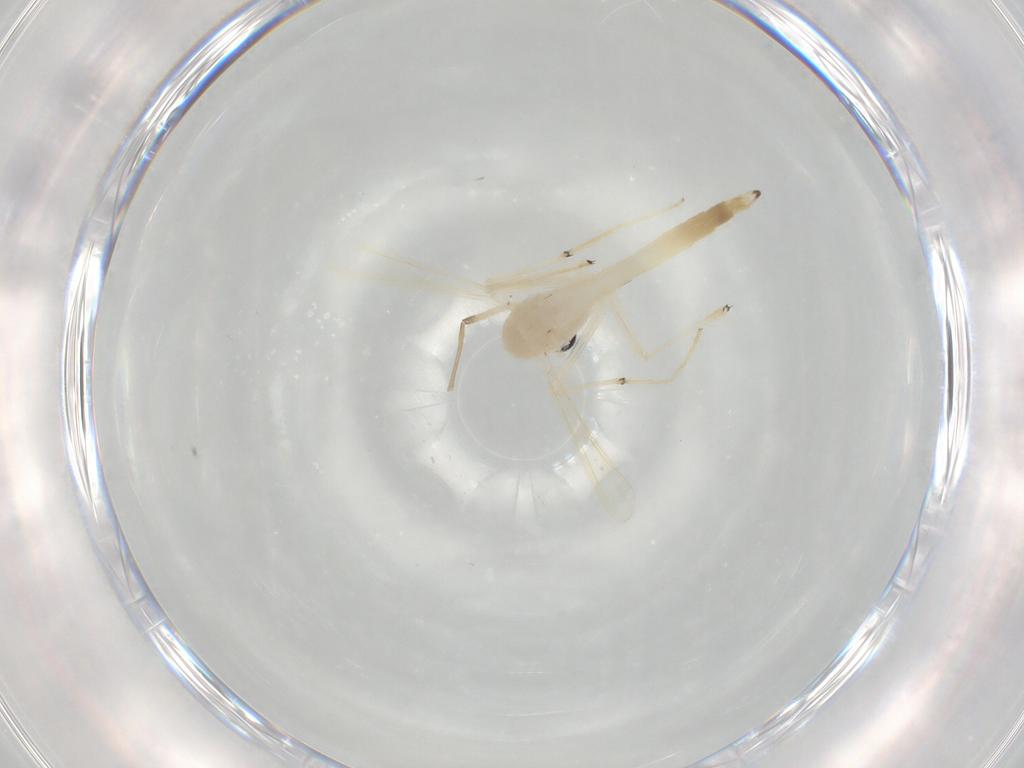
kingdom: Animalia
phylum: Arthropoda
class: Insecta
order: Diptera
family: Chironomidae
